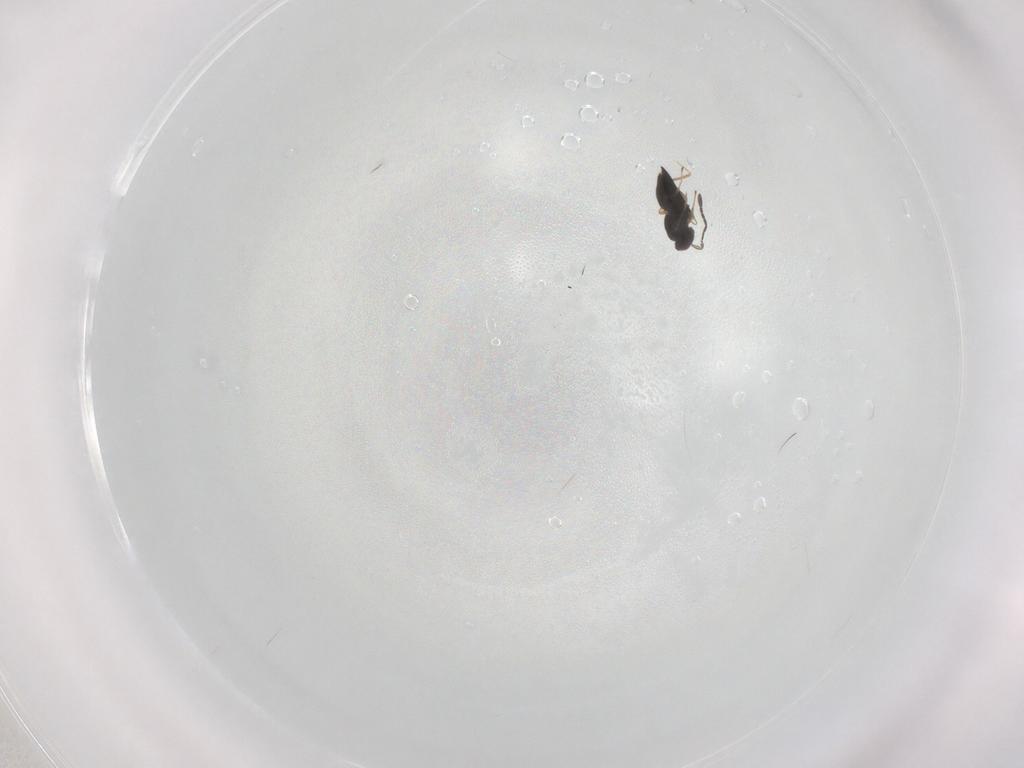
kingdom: Animalia
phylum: Arthropoda
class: Insecta
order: Hymenoptera
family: Mymaridae
